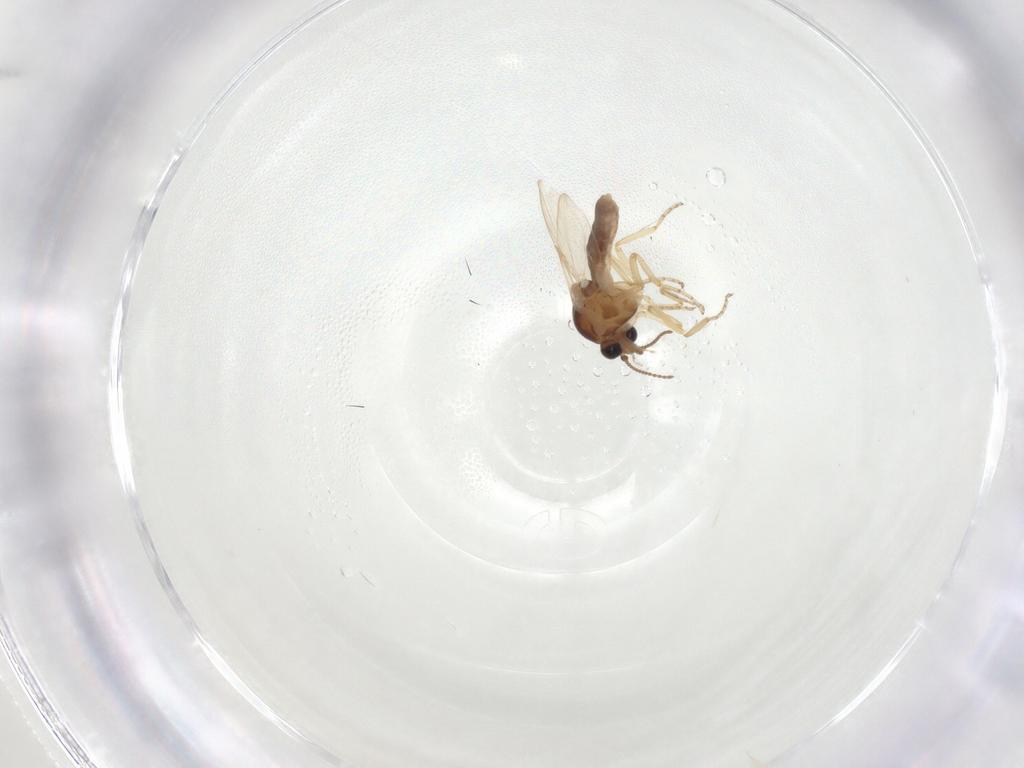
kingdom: Animalia
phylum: Arthropoda
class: Insecta
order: Diptera
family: Ceratopogonidae
